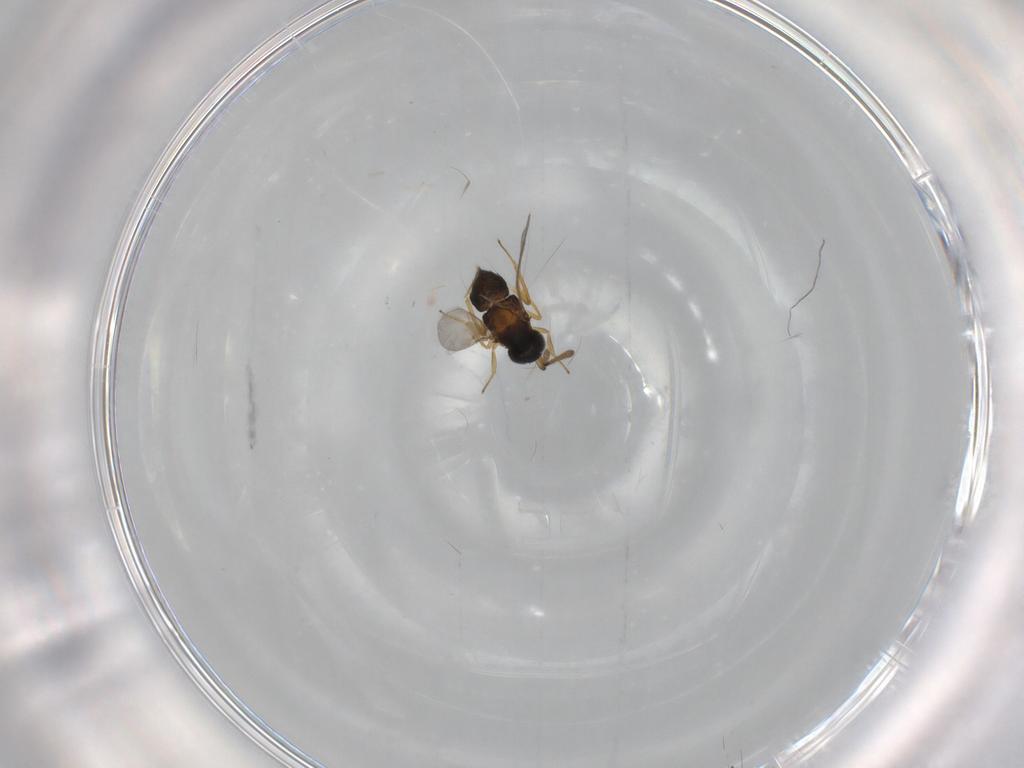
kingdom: Animalia
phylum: Arthropoda
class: Insecta
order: Hymenoptera
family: Encyrtidae
